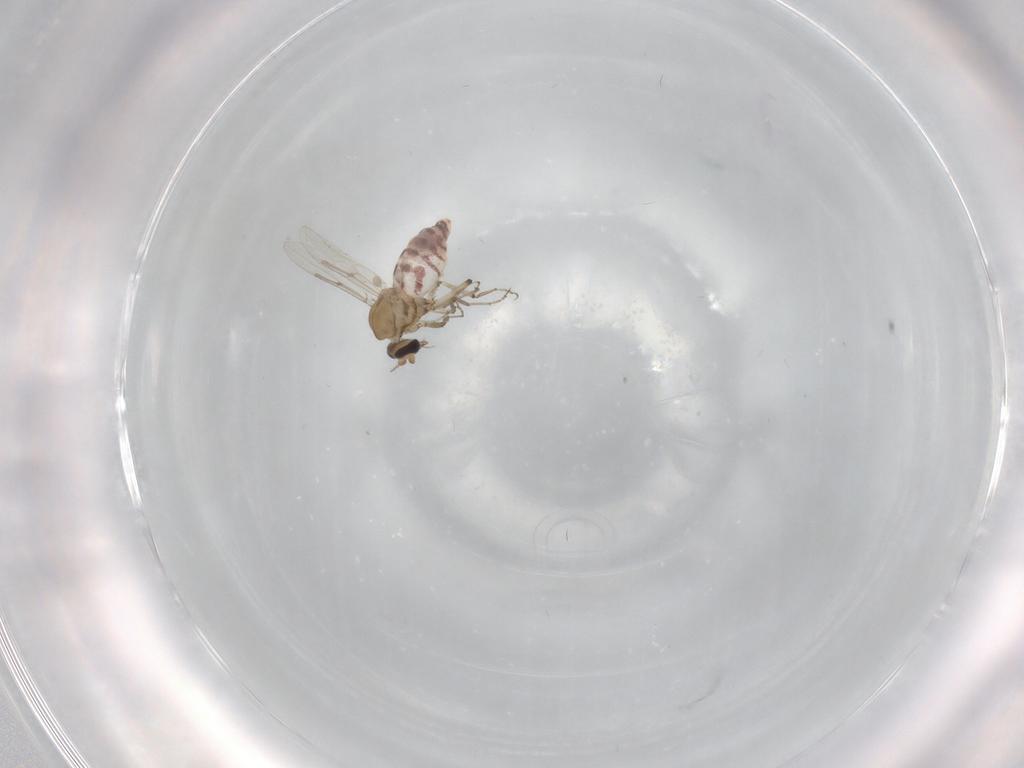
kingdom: Animalia
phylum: Arthropoda
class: Insecta
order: Diptera
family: Ceratopogonidae
